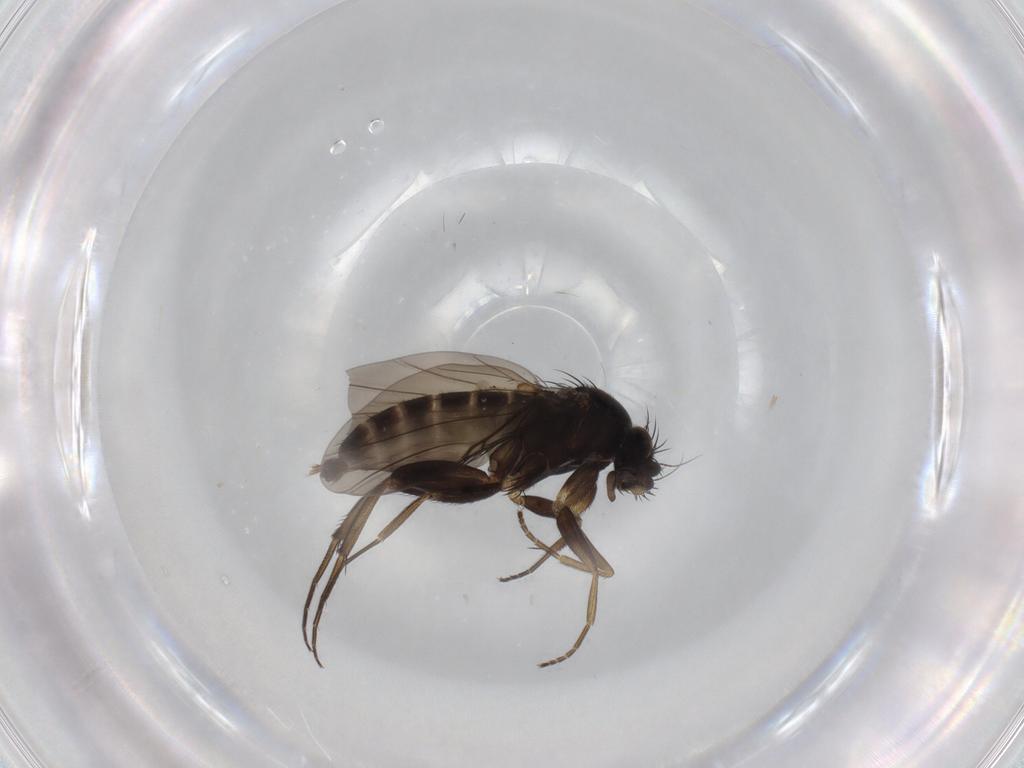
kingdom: Animalia
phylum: Arthropoda
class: Insecta
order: Diptera
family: Phoridae
